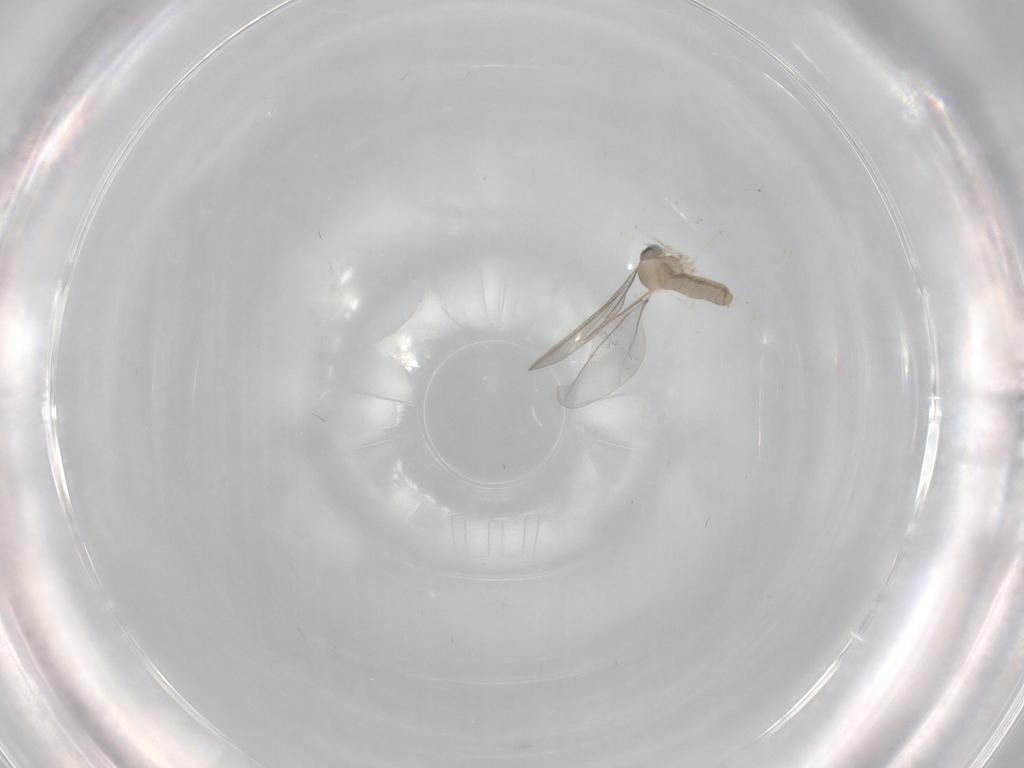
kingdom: Animalia
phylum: Arthropoda
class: Insecta
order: Diptera
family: Cecidomyiidae
